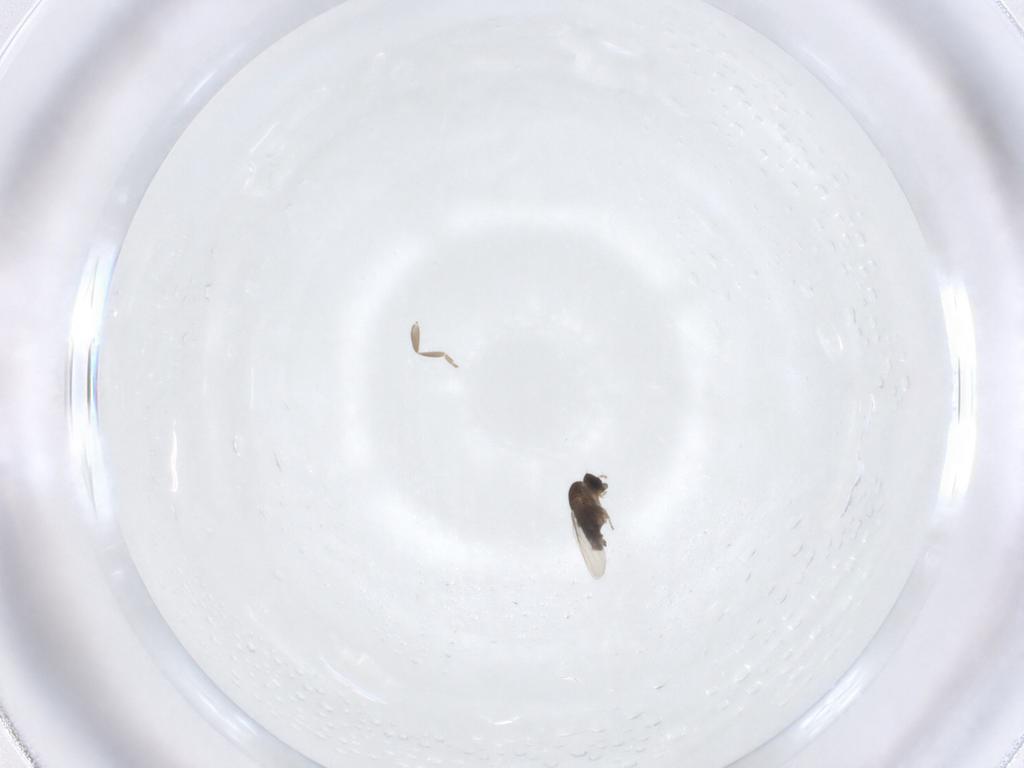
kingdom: Animalia
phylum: Arthropoda
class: Insecta
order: Diptera
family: Phoridae
